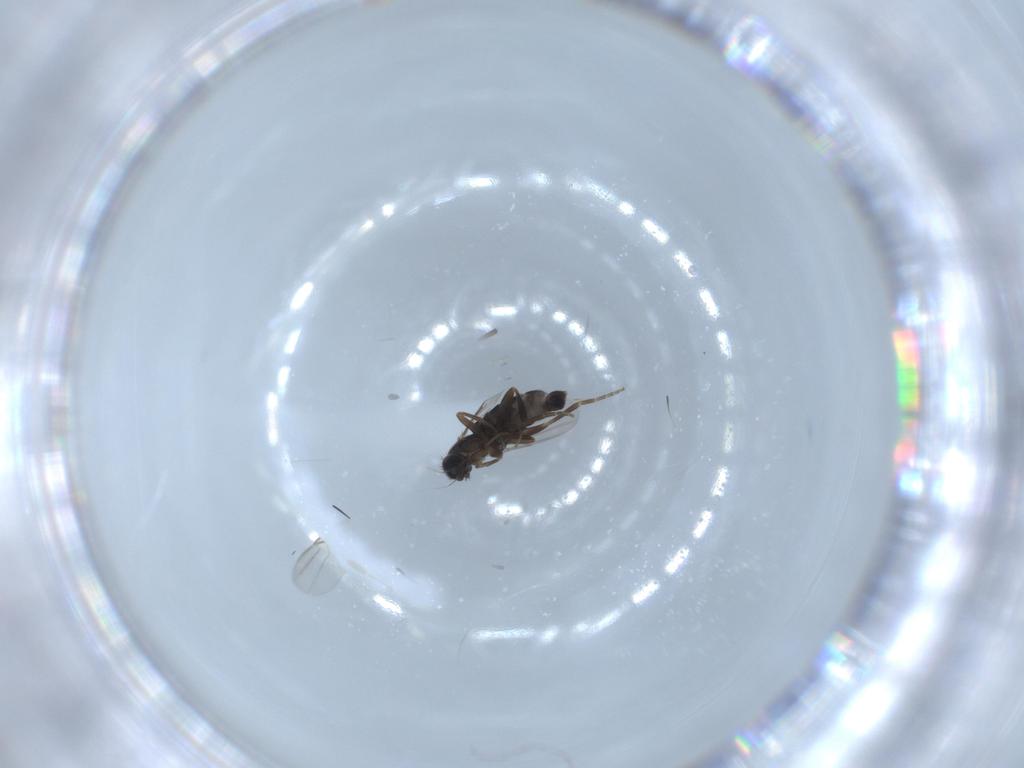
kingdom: Animalia
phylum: Arthropoda
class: Insecta
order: Diptera
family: Phoridae
